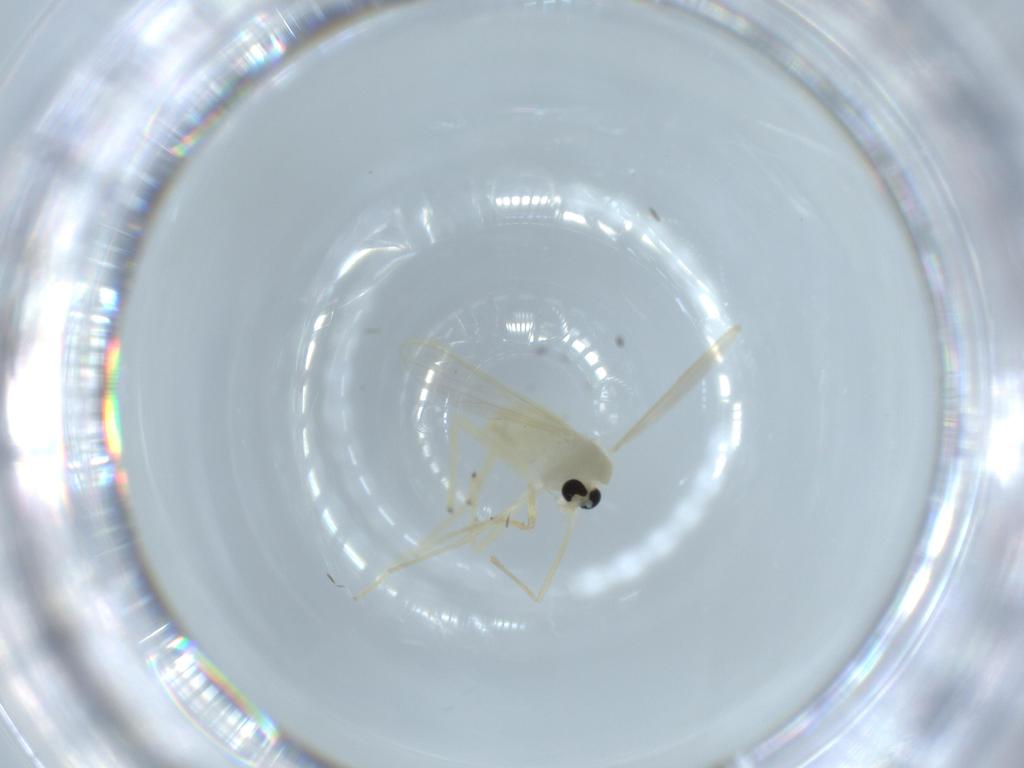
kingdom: Animalia
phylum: Arthropoda
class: Insecta
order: Diptera
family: Chironomidae
